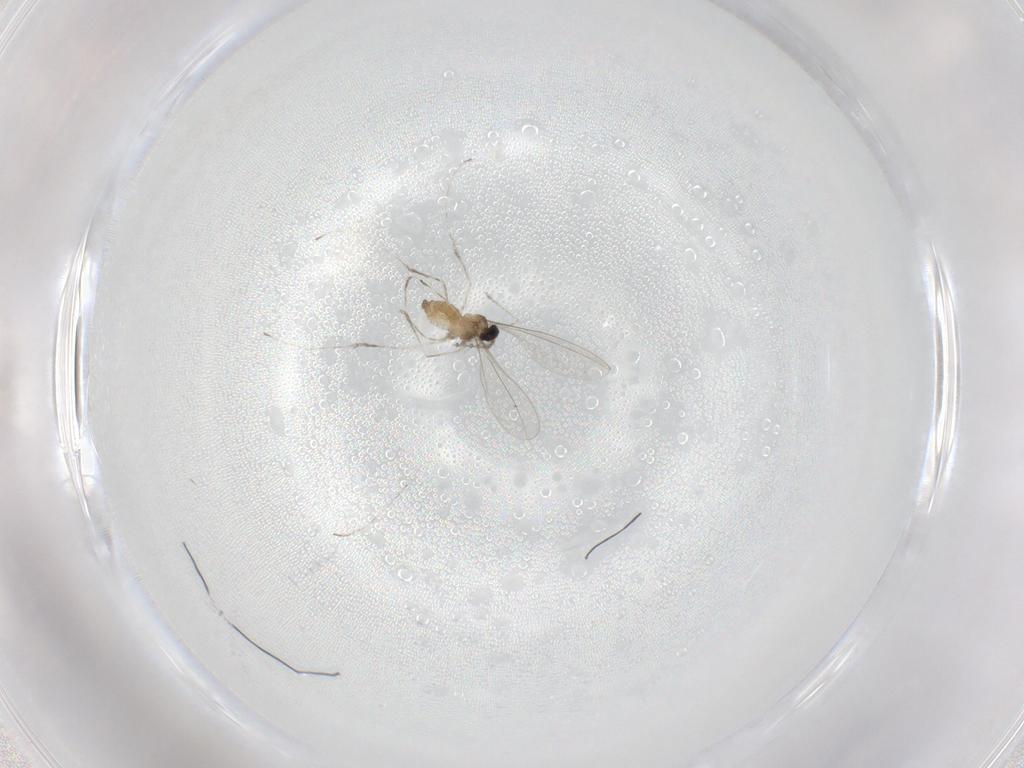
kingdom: Animalia
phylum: Arthropoda
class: Insecta
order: Diptera
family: Cecidomyiidae
